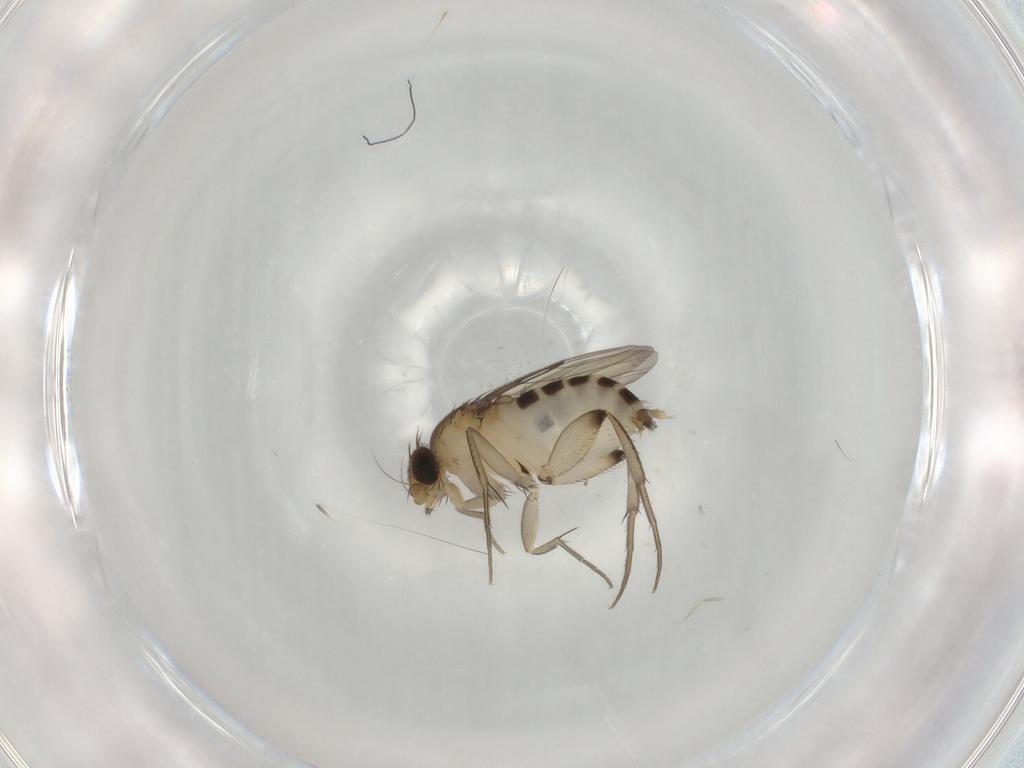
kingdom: Animalia
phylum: Arthropoda
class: Insecta
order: Diptera
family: Phoridae
